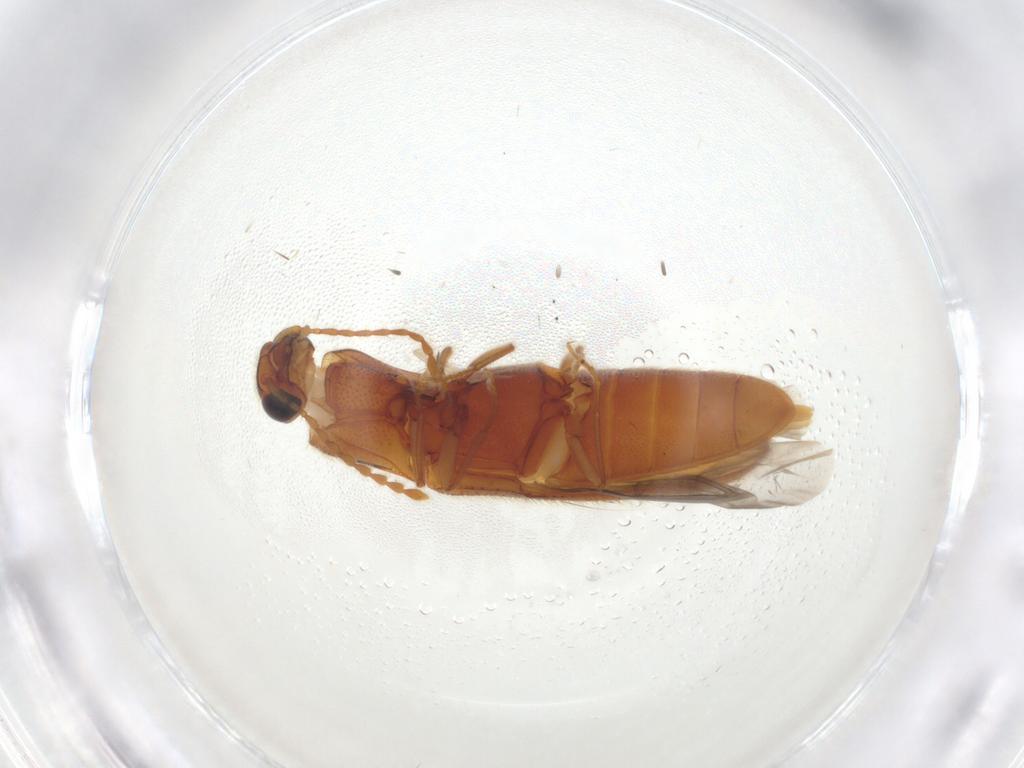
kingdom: Animalia
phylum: Arthropoda
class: Insecta
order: Coleoptera
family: Elateridae
